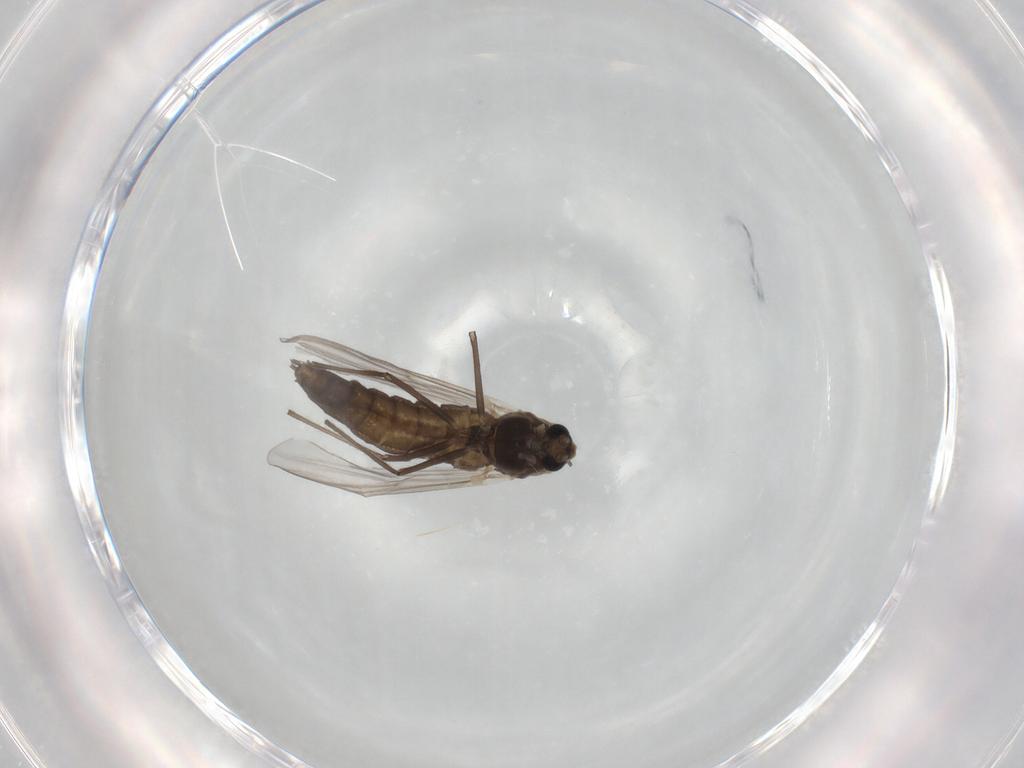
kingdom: Animalia
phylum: Arthropoda
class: Insecta
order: Diptera
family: Chironomidae
